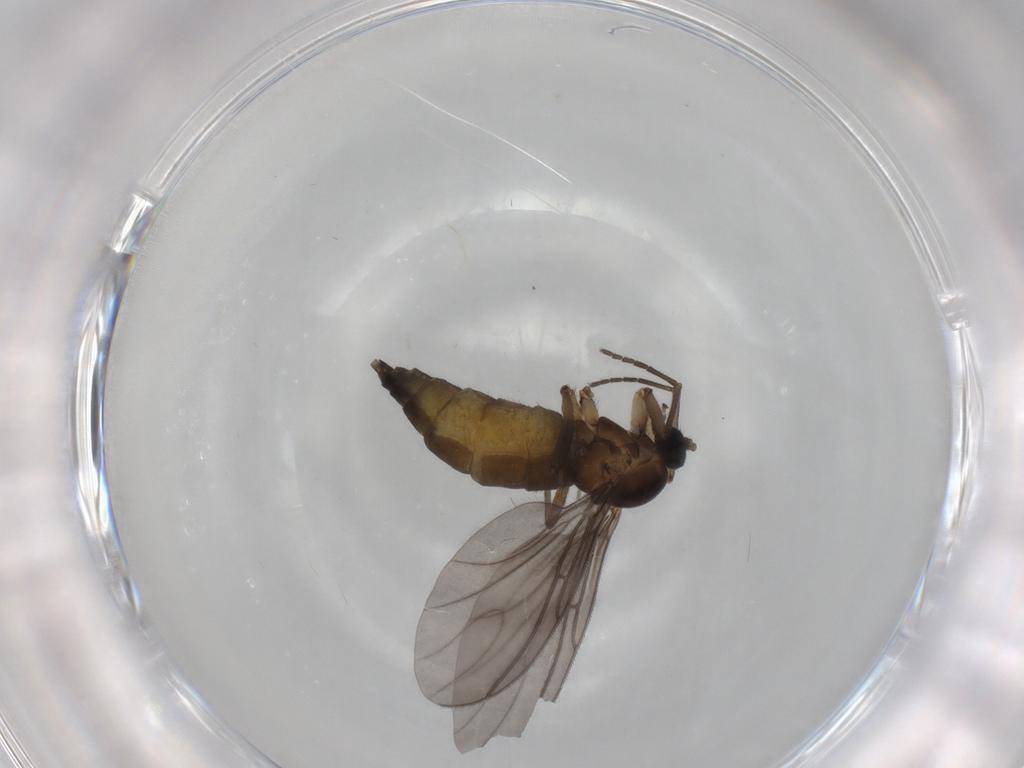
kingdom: Animalia
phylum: Arthropoda
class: Insecta
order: Diptera
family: Sciaridae
